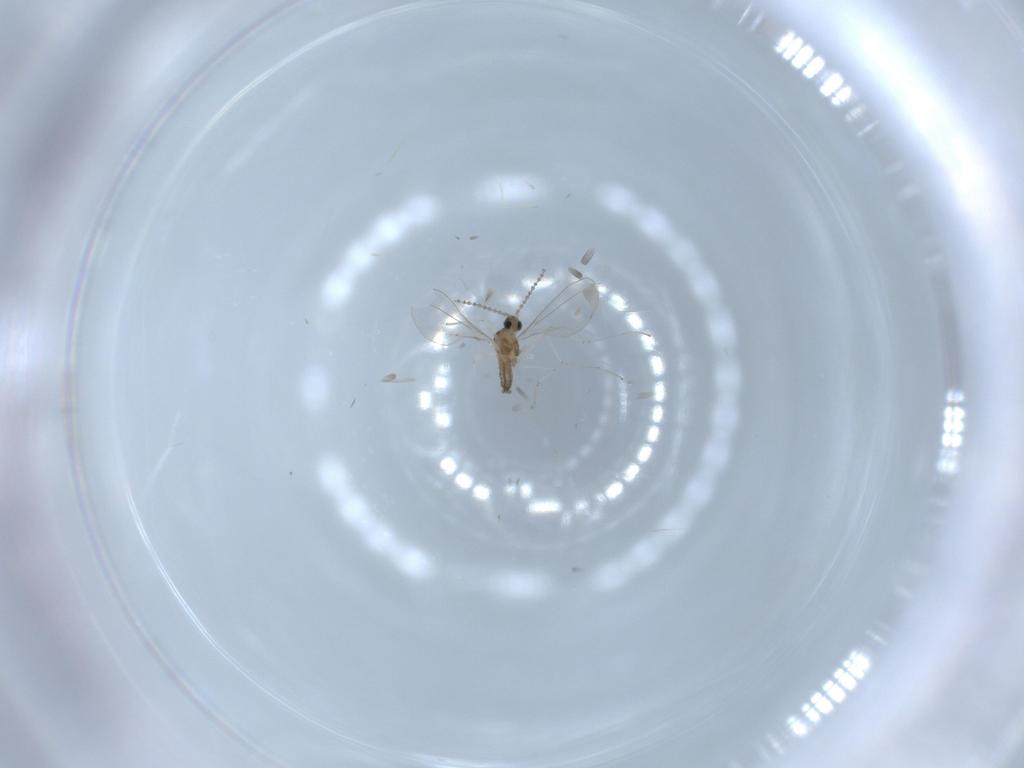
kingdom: Animalia
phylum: Arthropoda
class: Insecta
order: Diptera
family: Cecidomyiidae
